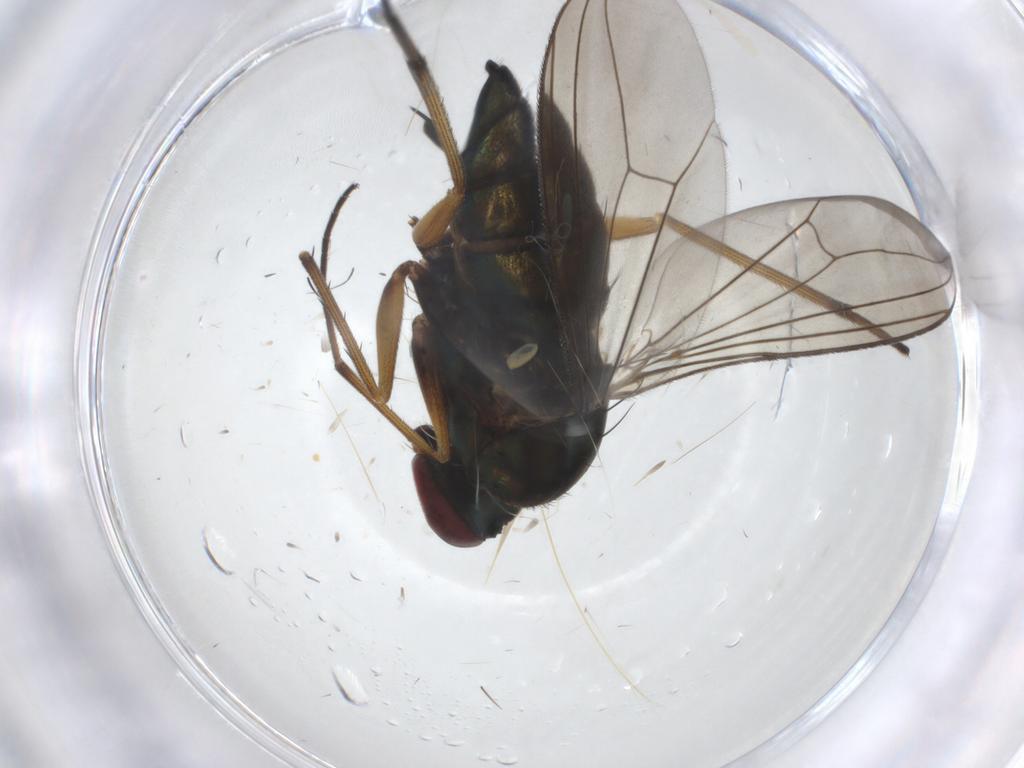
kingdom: Animalia
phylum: Arthropoda
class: Insecta
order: Diptera
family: Dolichopodidae
